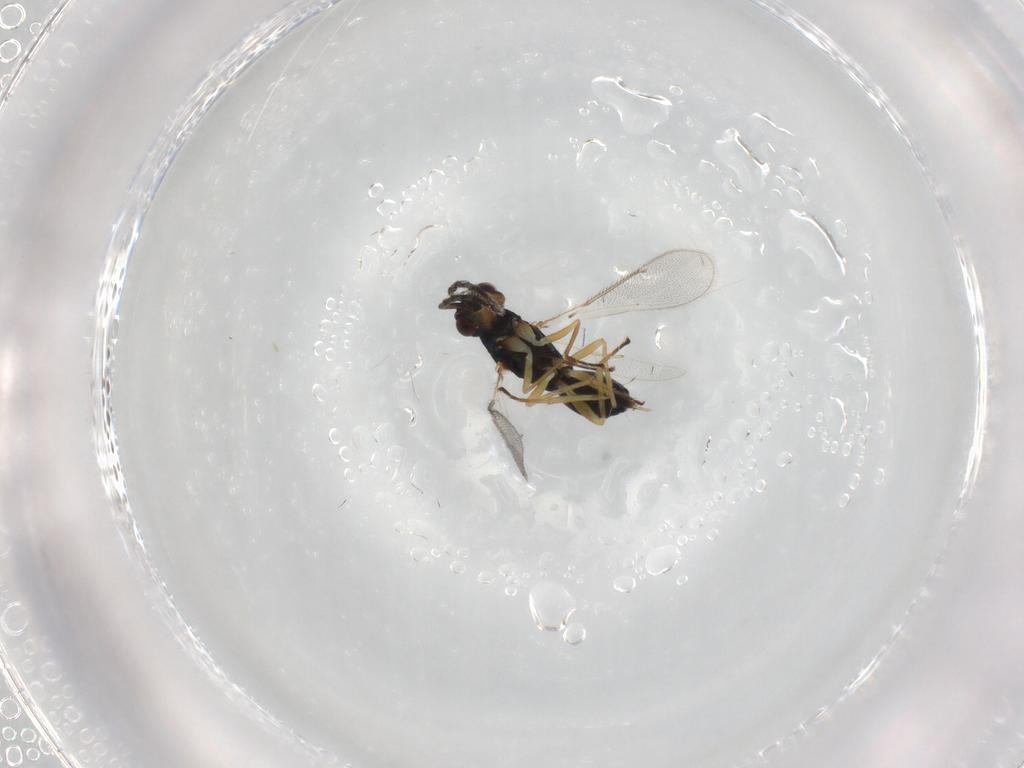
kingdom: Animalia
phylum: Arthropoda
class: Insecta
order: Hymenoptera
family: Eulophidae
